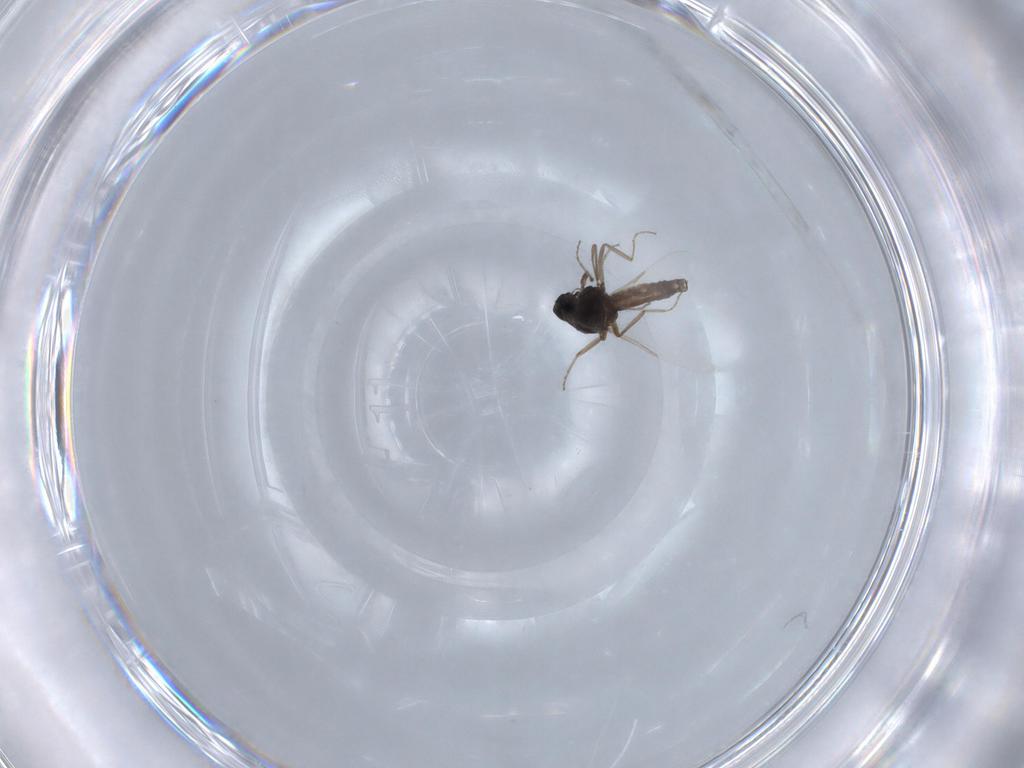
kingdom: Animalia
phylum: Arthropoda
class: Insecta
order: Diptera
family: Ceratopogonidae
